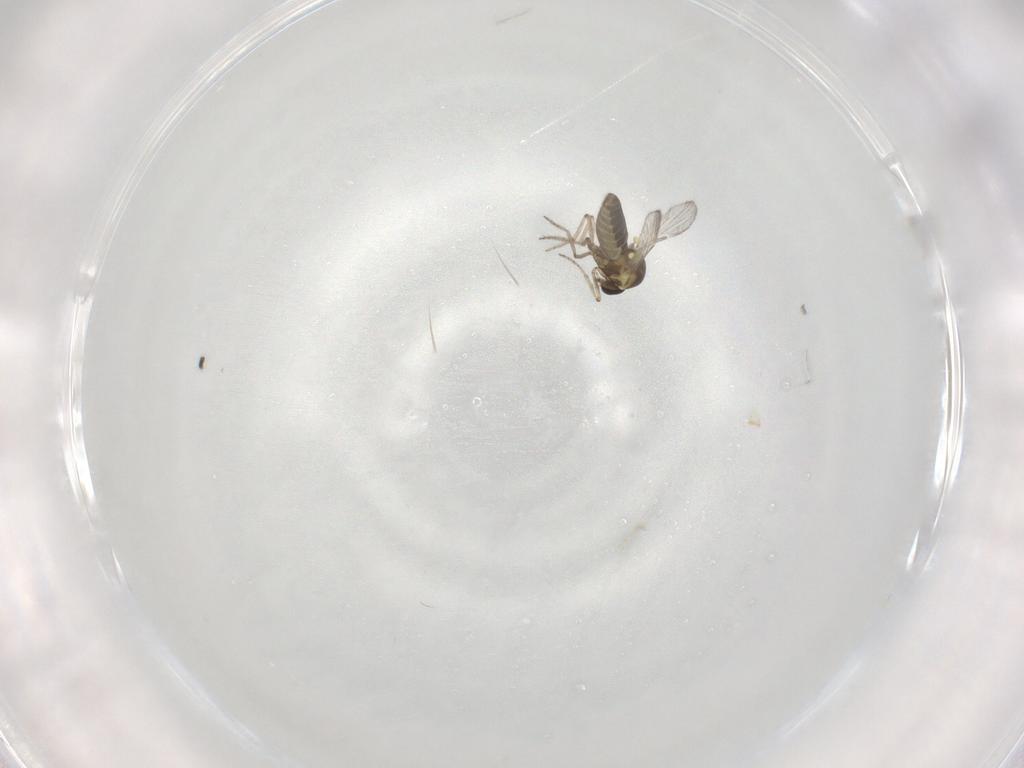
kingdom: Animalia
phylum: Arthropoda
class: Insecta
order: Diptera
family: Ceratopogonidae
